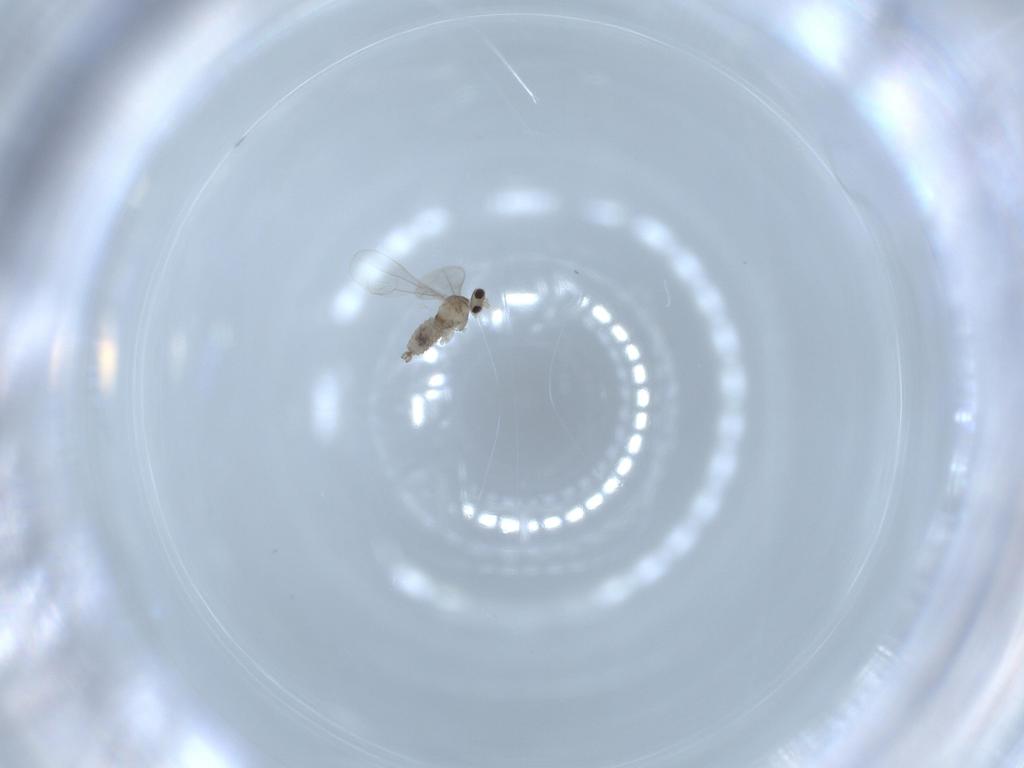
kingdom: Animalia
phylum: Arthropoda
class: Insecta
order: Diptera
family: Cecidomyiidae
